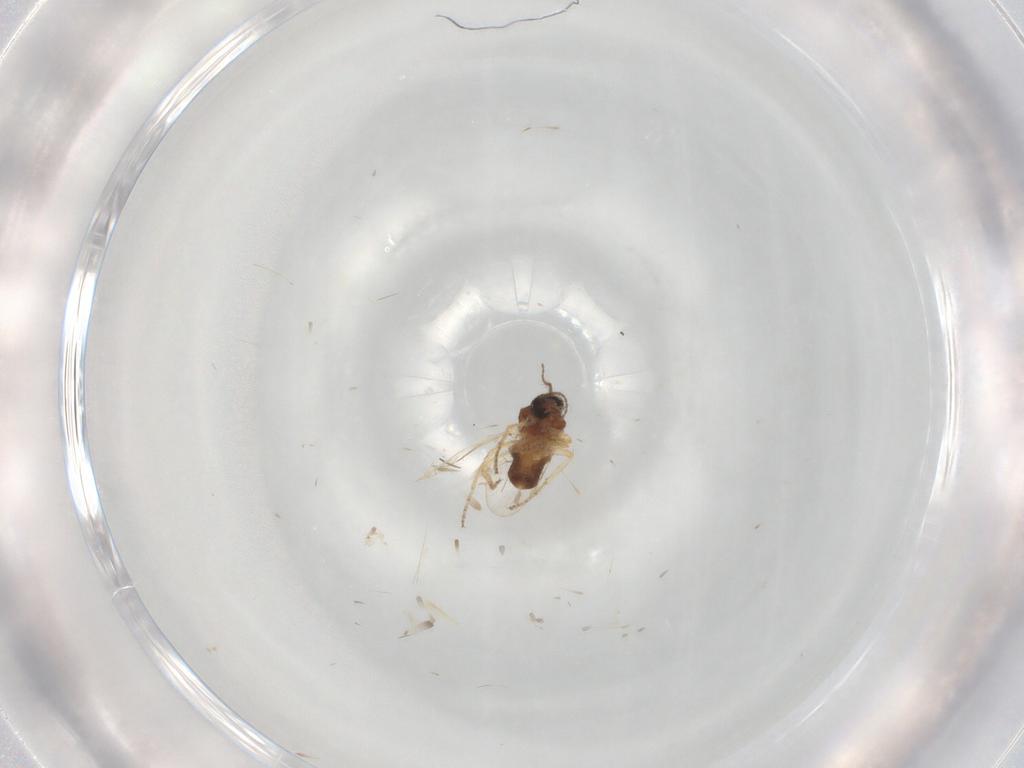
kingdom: Animalia
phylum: Arthropoda
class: Insecta
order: Diptera
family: Ceratopogonidae
